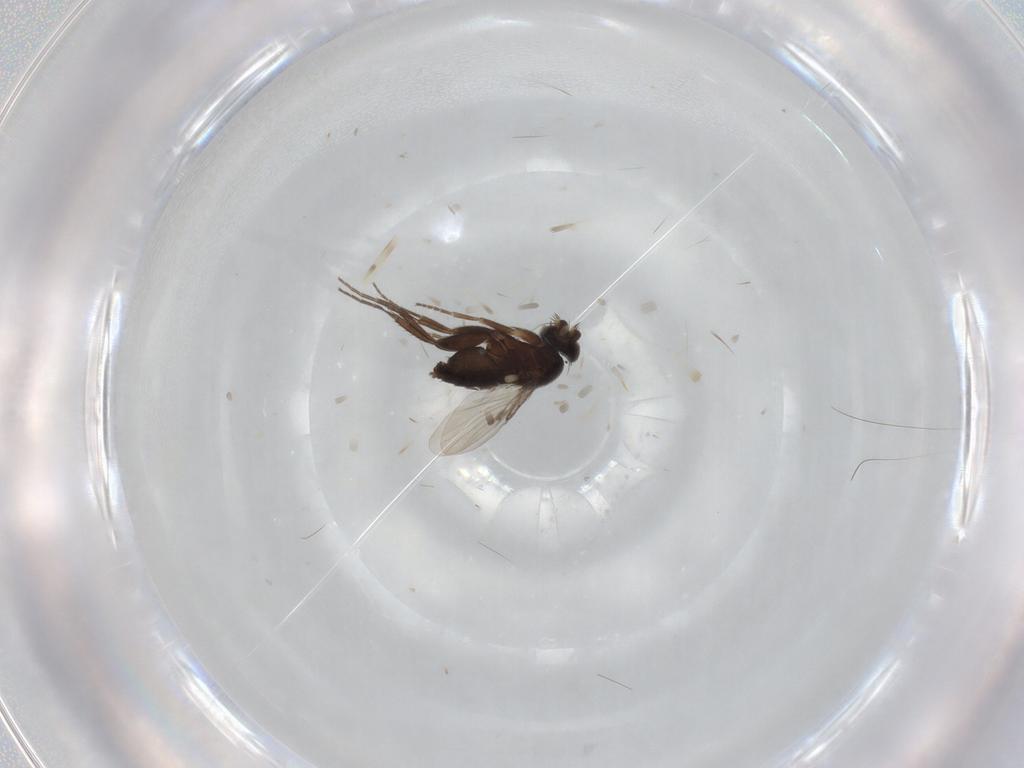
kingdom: Animalia
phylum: Arthropoda
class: Insecta
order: Diptera
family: Phoridae
